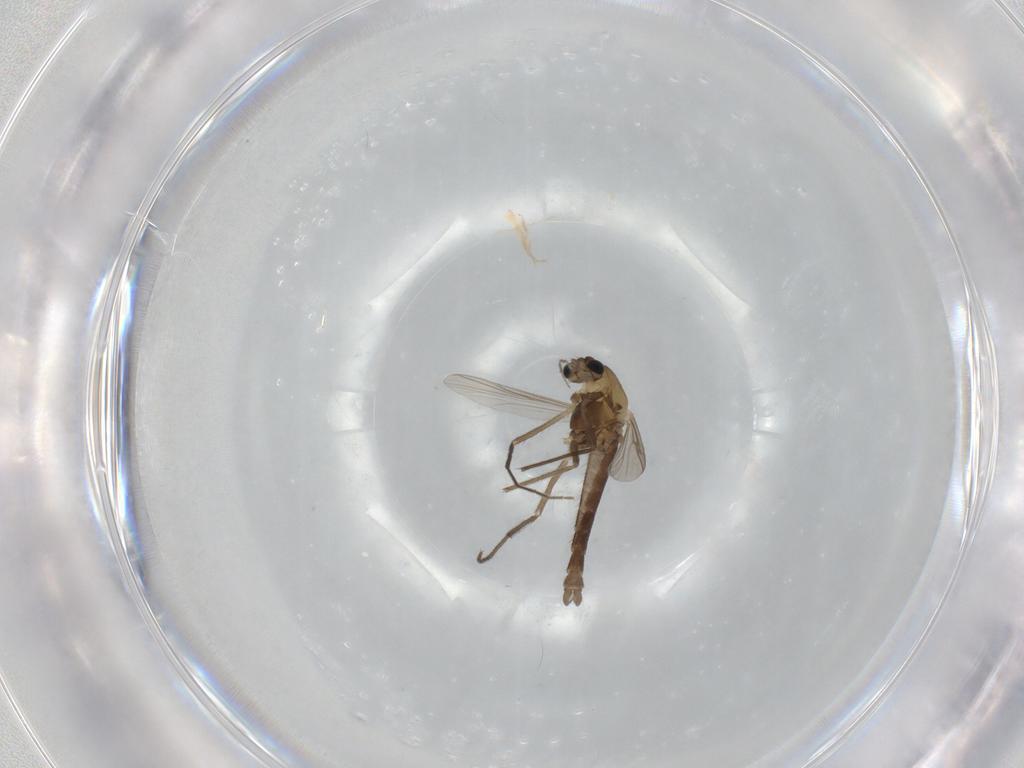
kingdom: Animalia
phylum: Arthropoda
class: Insecta
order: Diptera
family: Chironomidae
